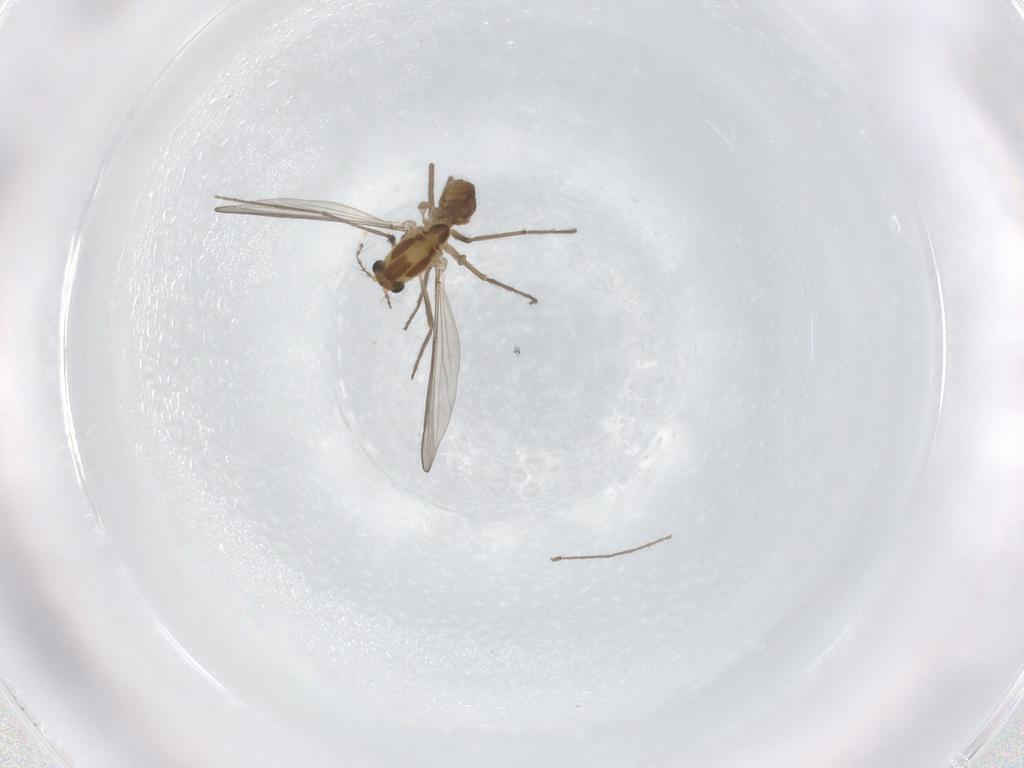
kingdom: Animalia
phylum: Arthropoda
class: Insecta
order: Diptera
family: Chironomidae
